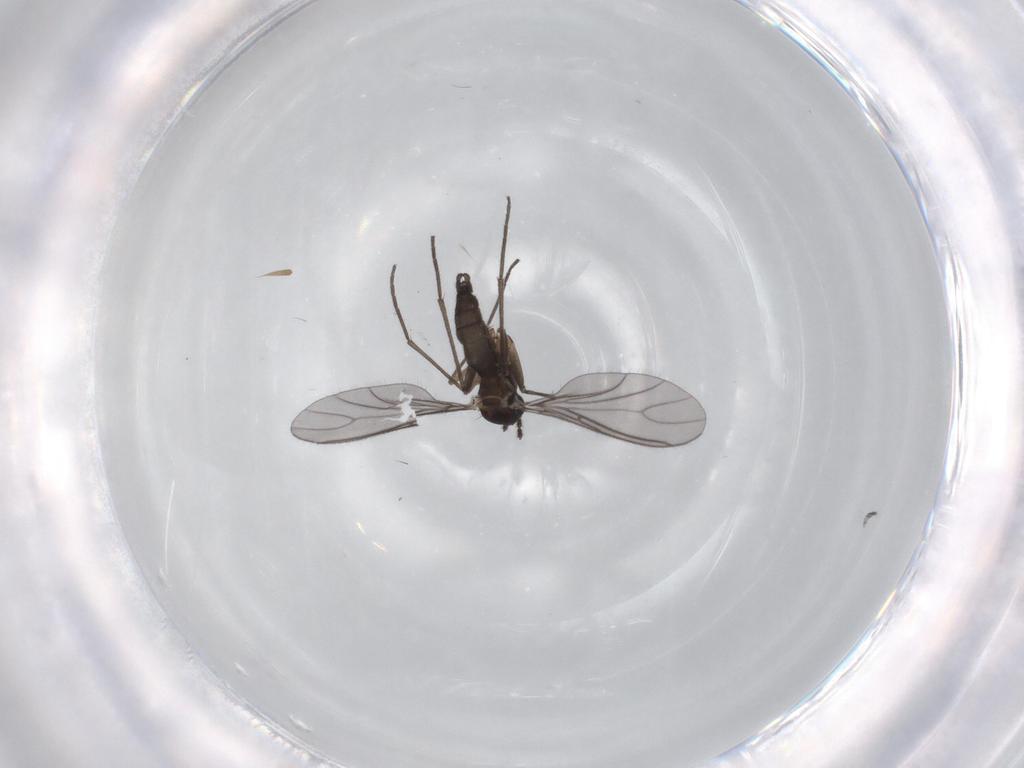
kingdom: Animalia
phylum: Arthropoda
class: Insecta
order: Diptera
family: Sciaridae
